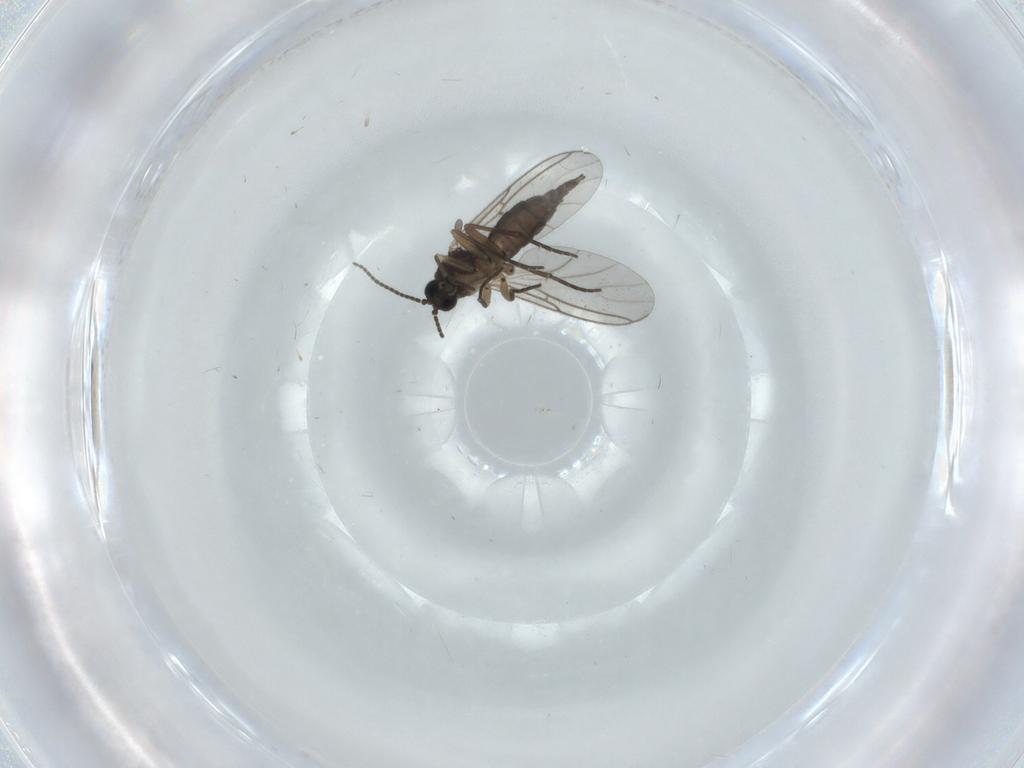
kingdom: Animalia
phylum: Arthropoda
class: Insecta
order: Diptera
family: Sciaridae
